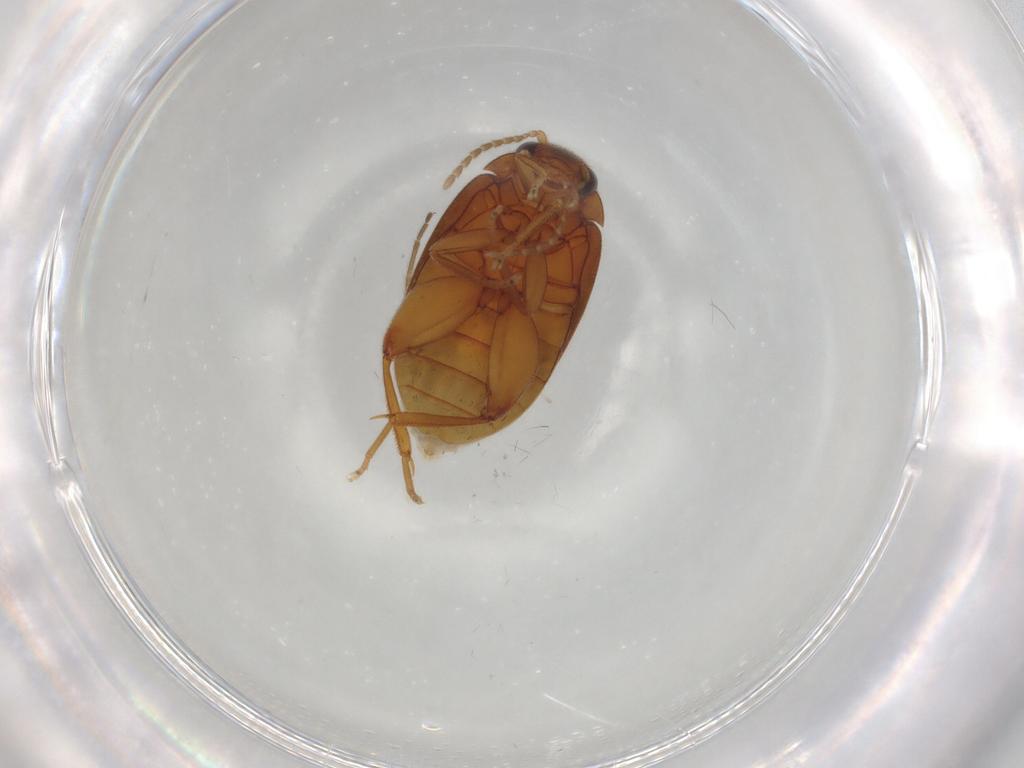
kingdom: Animalia
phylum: Arthropoda
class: Insecta
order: Coleoptera
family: Scirtidae
